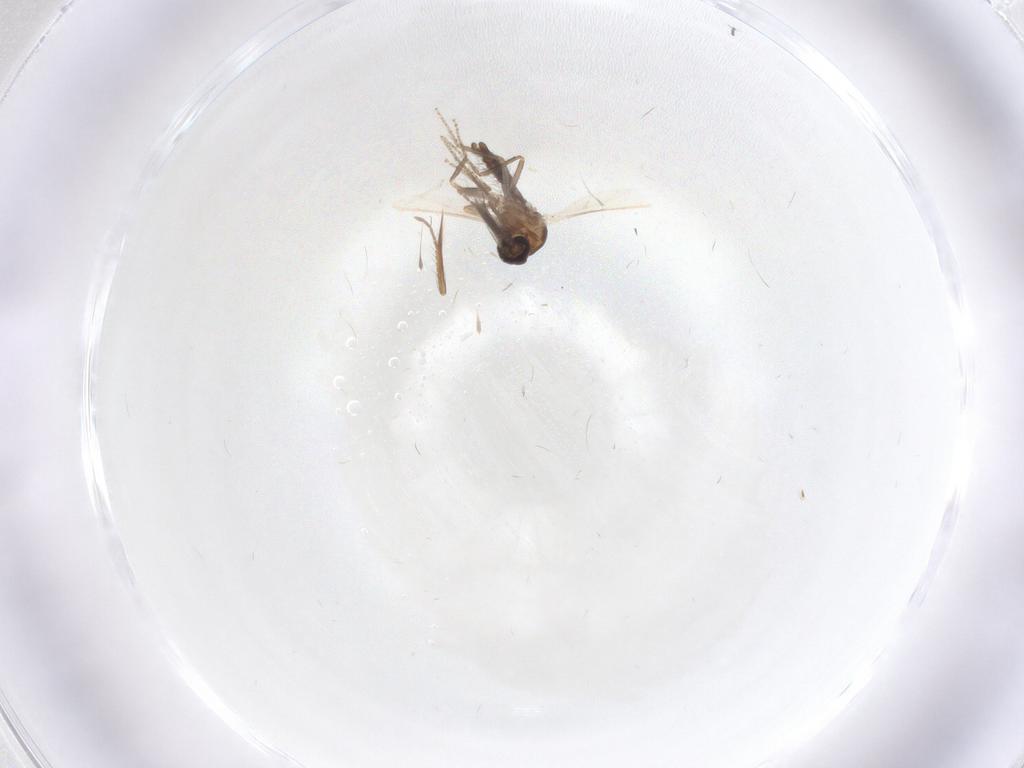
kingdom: Animalia
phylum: Arthropoda
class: Insecta
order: Diptera
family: Ceratopogonidae
